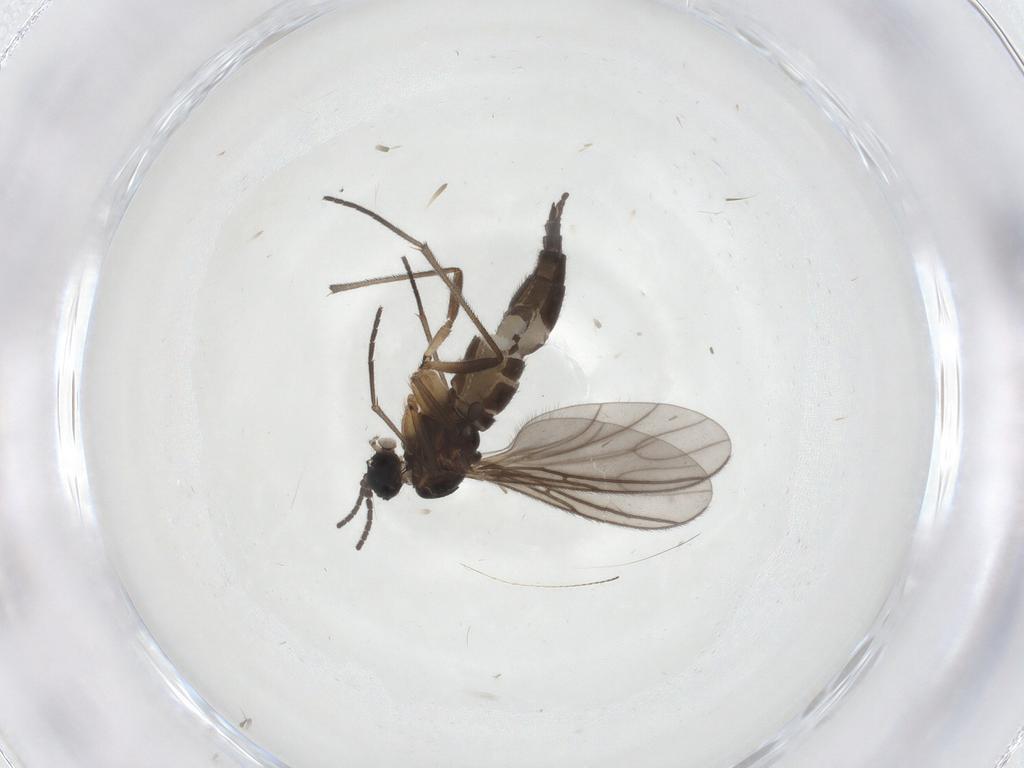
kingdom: Animalia
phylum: Arthropoda
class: Insecta
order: Diptera
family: Sciaridae
